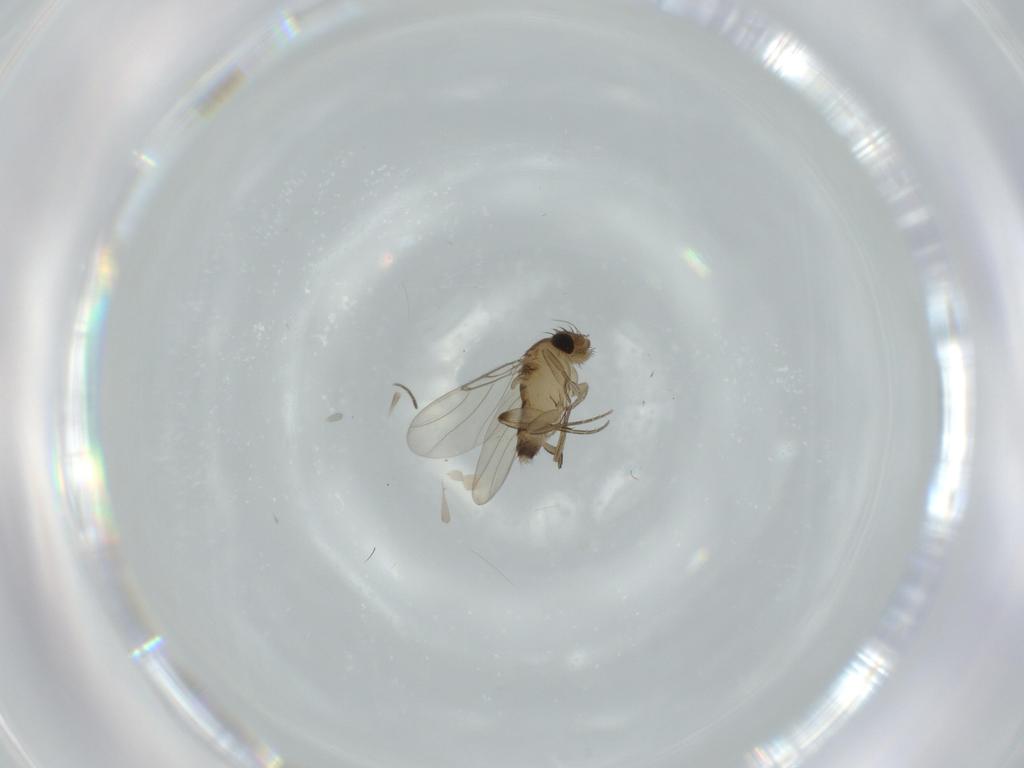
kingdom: Animalia
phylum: Arthropoda
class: Insecta
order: Diptera
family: Phoridae
